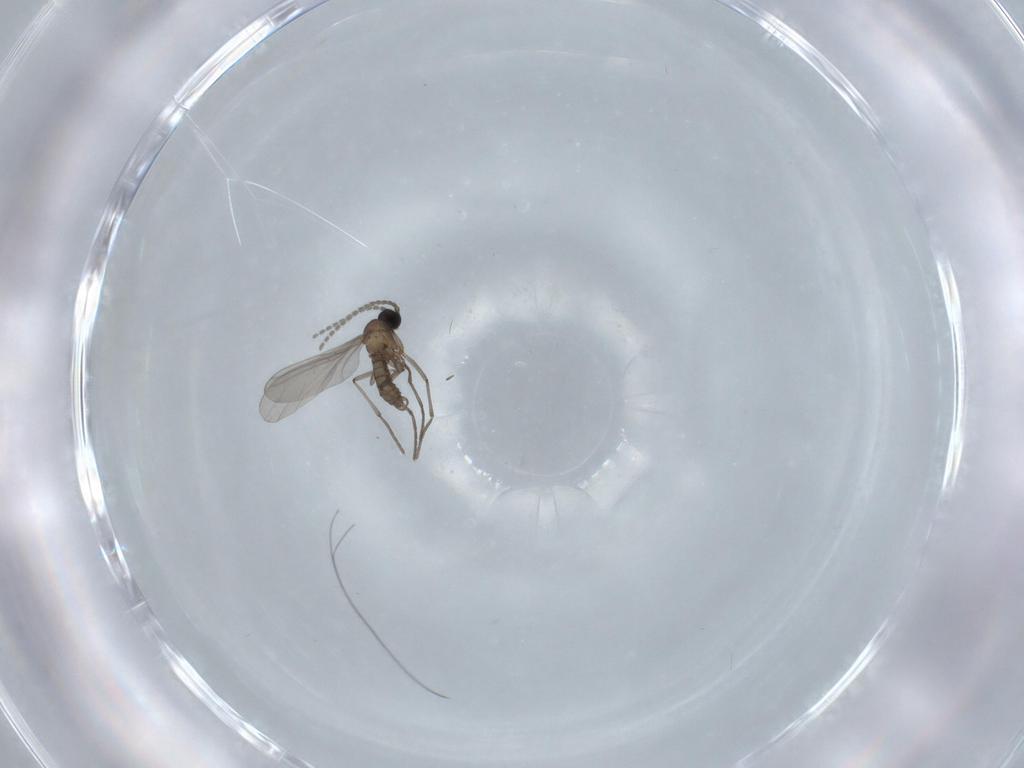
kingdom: Animalia
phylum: Arthropoda
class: Insecta
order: Diptera
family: Sciaridae
